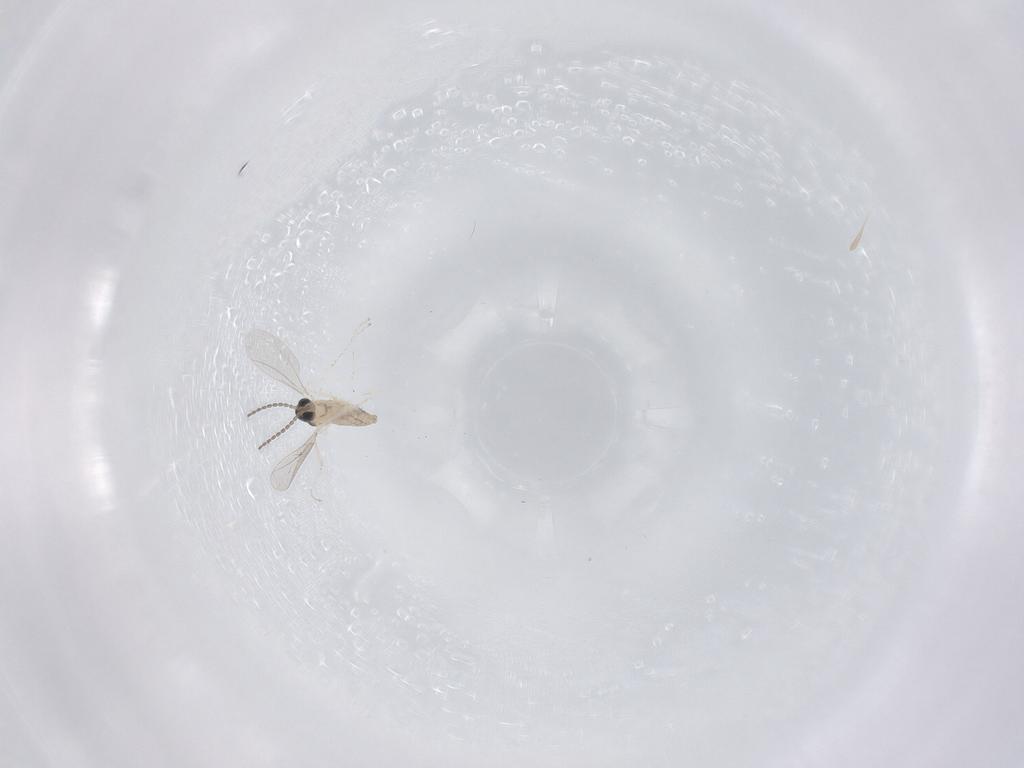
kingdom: Animalia
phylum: Arthropoda
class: Insecta
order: Diptera
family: Cecidomyiidae
